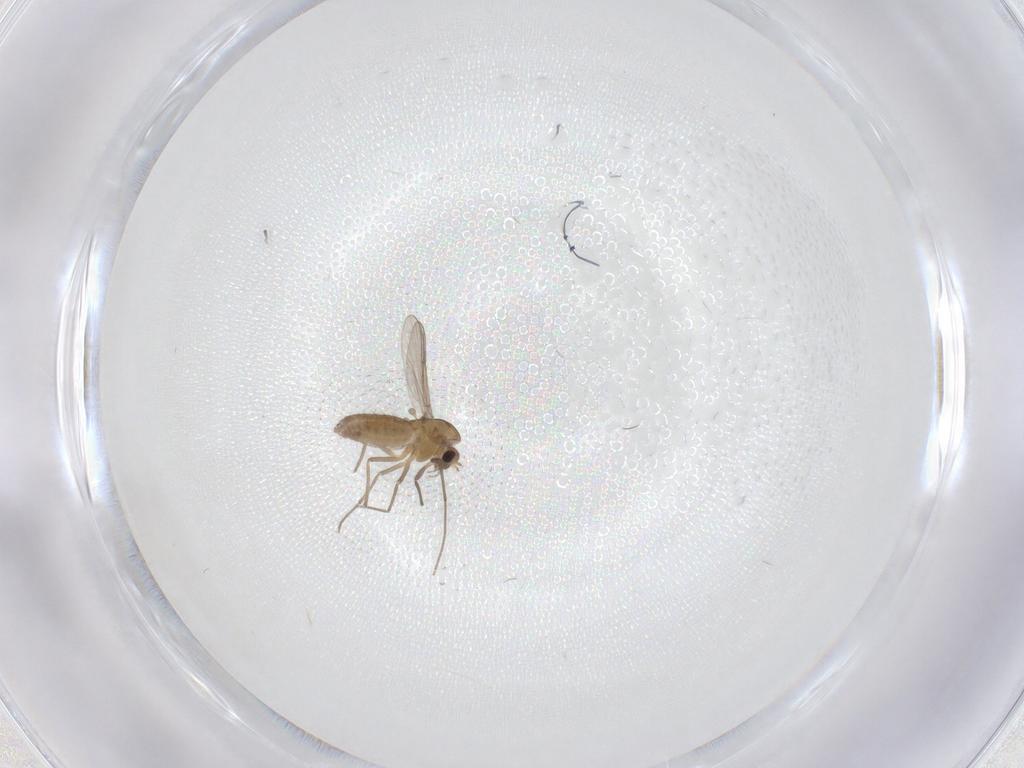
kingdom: Animalia
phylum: Arthropoda
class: Insecta
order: Diptera
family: Chironomidae
